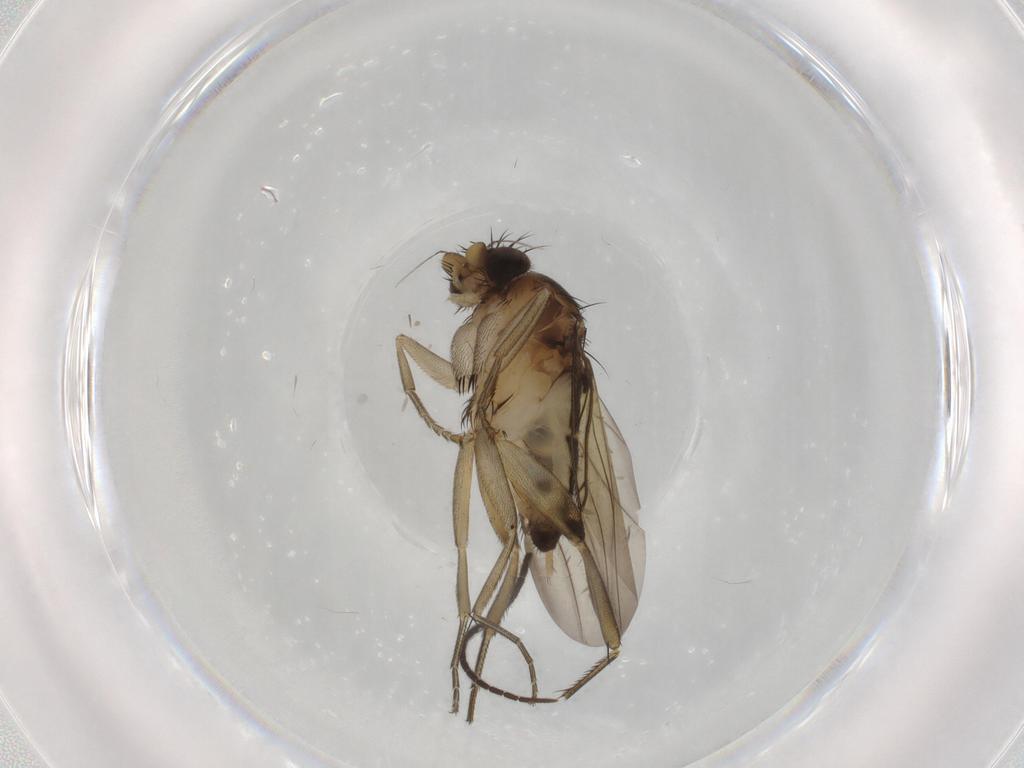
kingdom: Animalia
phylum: Arthropoda
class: Insecta
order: Diptera
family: Phoridae
